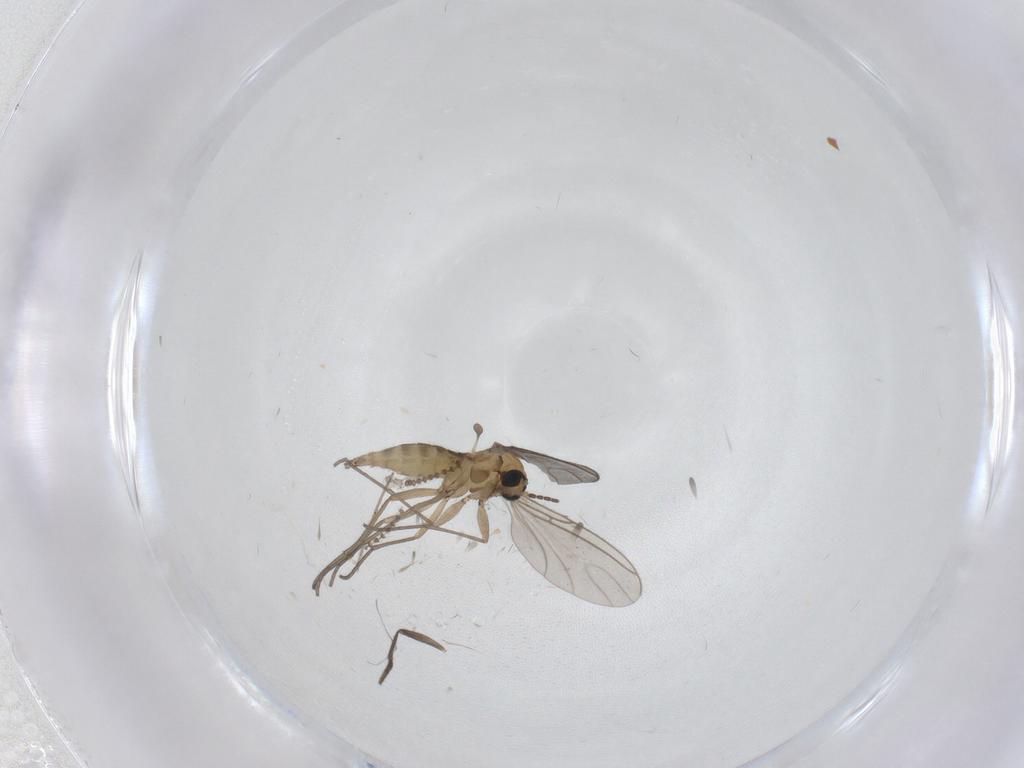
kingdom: Animalia
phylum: Arthropoda
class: Insecta
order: Diptera
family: Sciaridae
